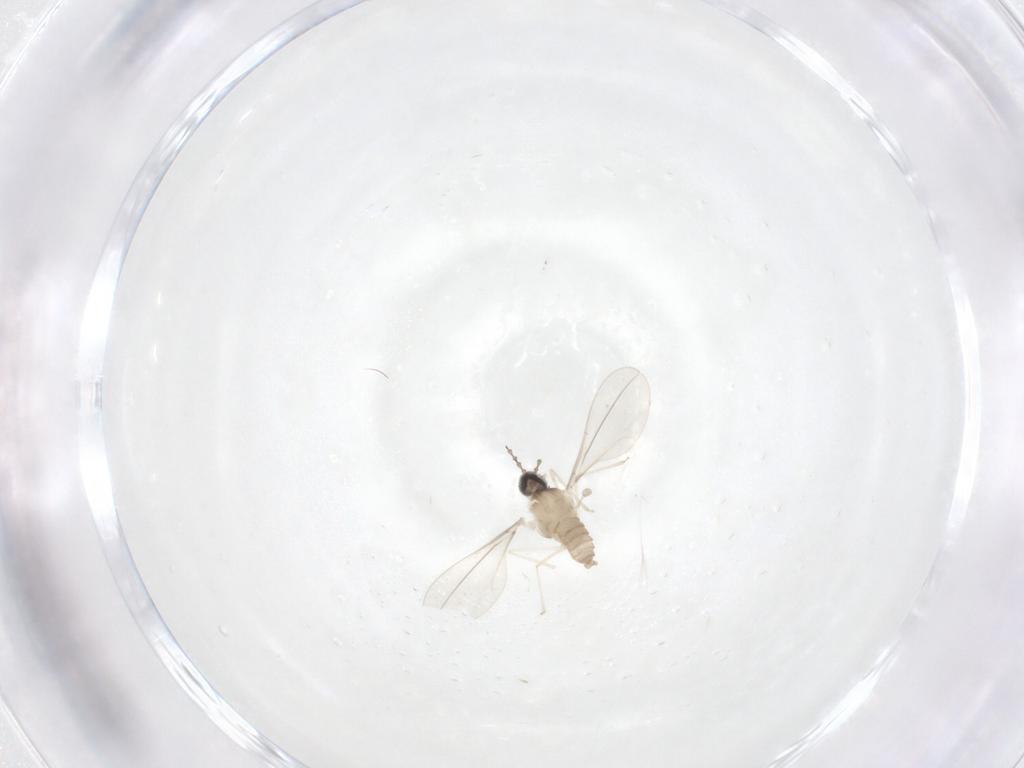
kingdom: Animalia
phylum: Arthropoda
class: Insecta
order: Diptera
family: Cecidomyiidae
